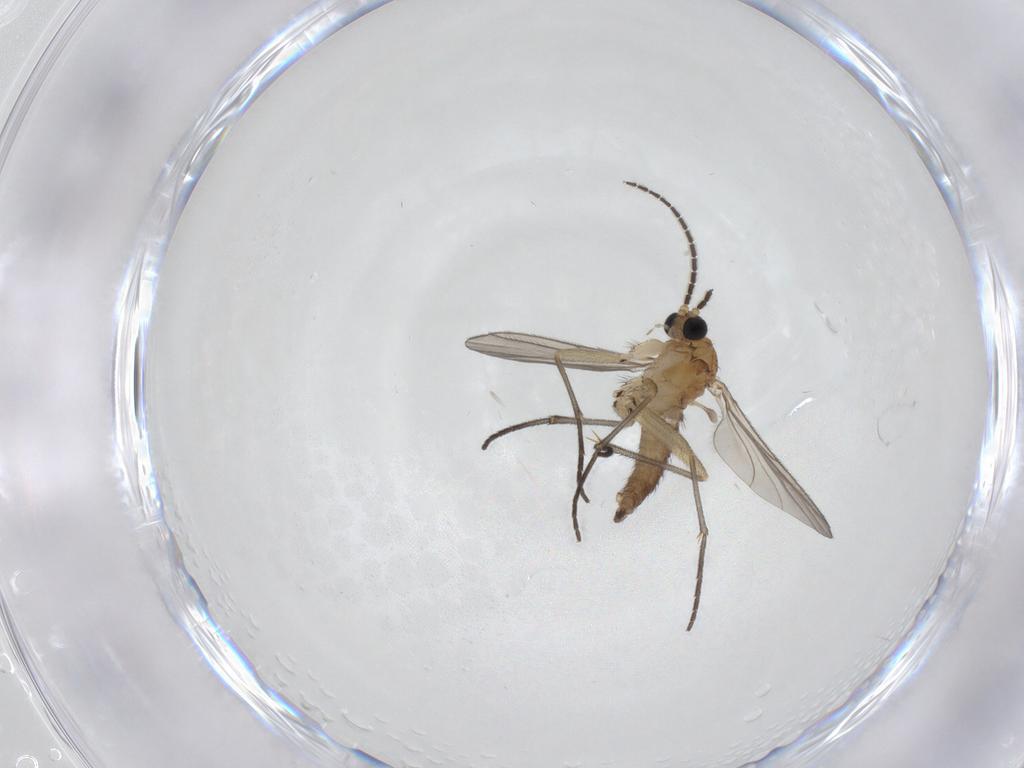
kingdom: Animalia
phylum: Arthropoda
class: Insecta
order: Diptera
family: Sciaridae
